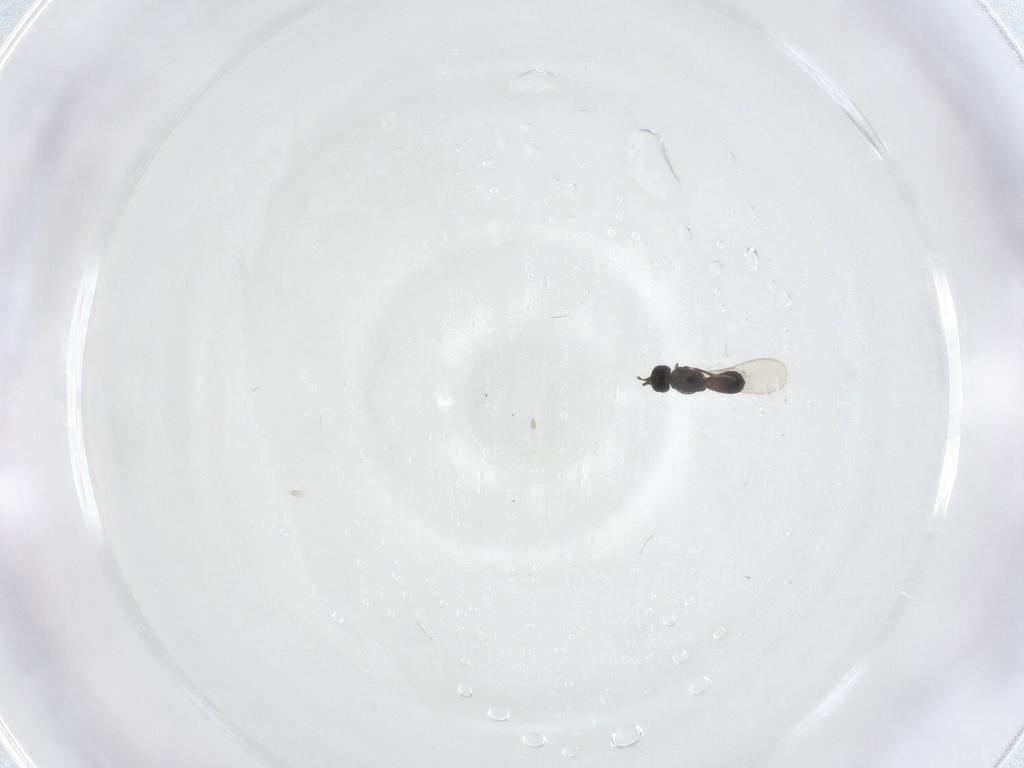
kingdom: Animalia
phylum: Arthropoda
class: Insecta
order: Hymenoptera
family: Scelionidae
